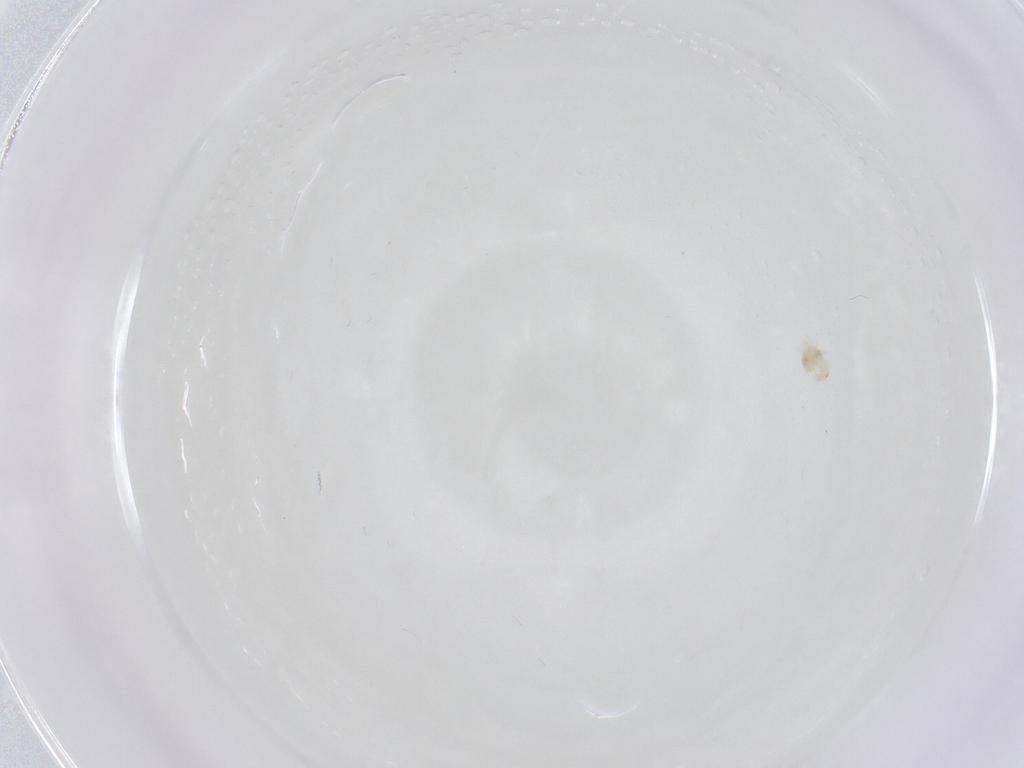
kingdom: Animalia
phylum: Arthropoda
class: Arachnida
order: Trombidiformes
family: Tydeidae
